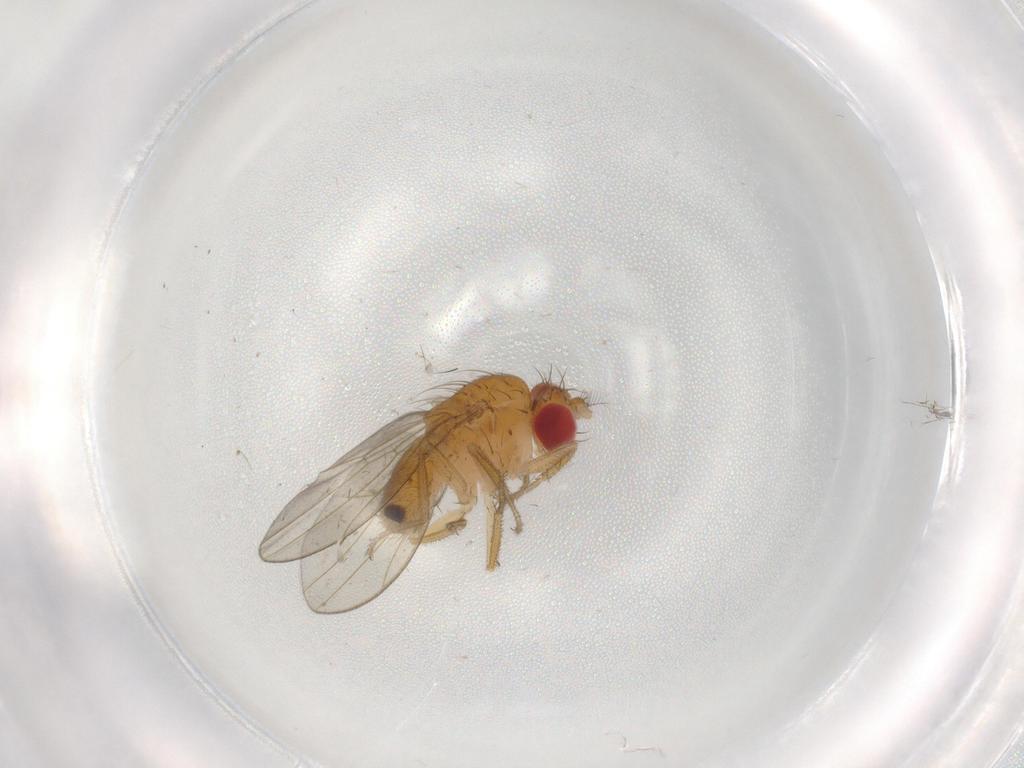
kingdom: Animalia
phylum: Arthropoda
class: Insecta
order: Diptera
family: Drosophilidae
